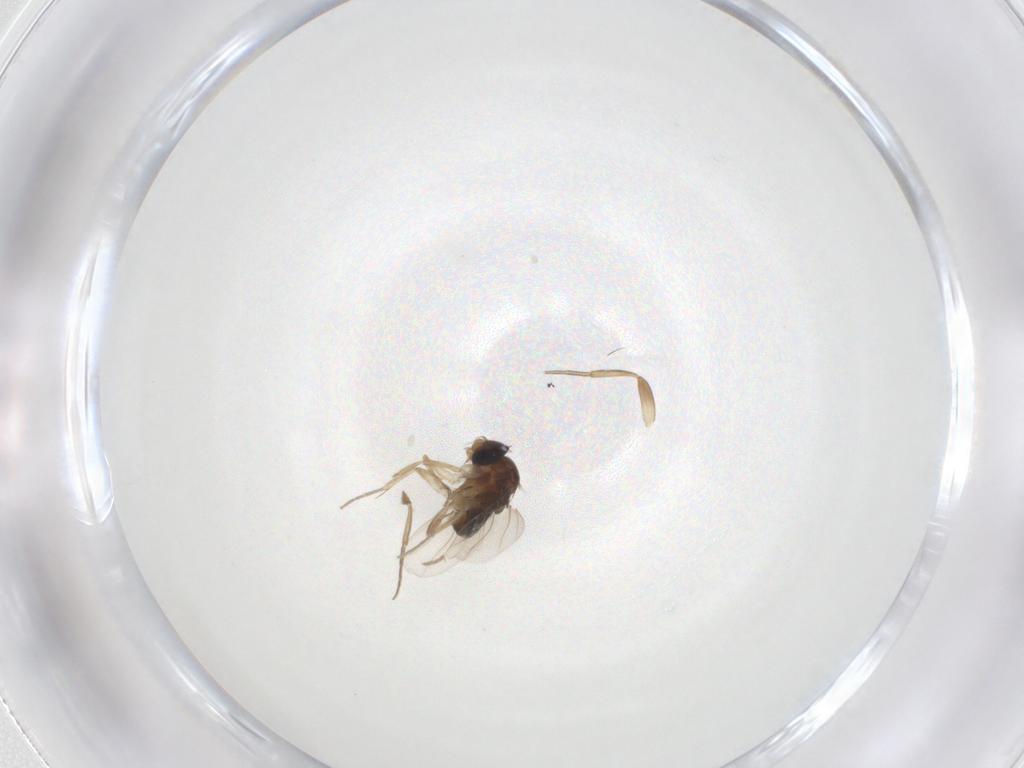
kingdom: Animalia
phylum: Arthropoda
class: Insecta
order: Diptera
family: Phoridae
